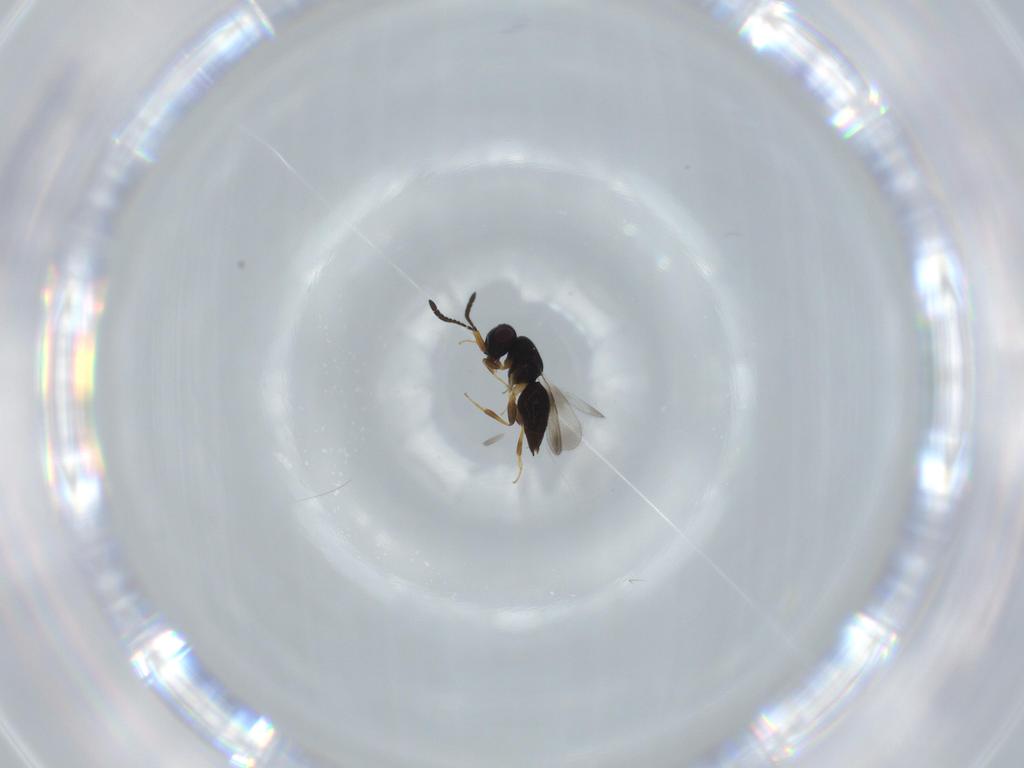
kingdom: Animalia
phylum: Arthropoda
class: Insecta
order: Hymenoptera
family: Ceraphronidae
